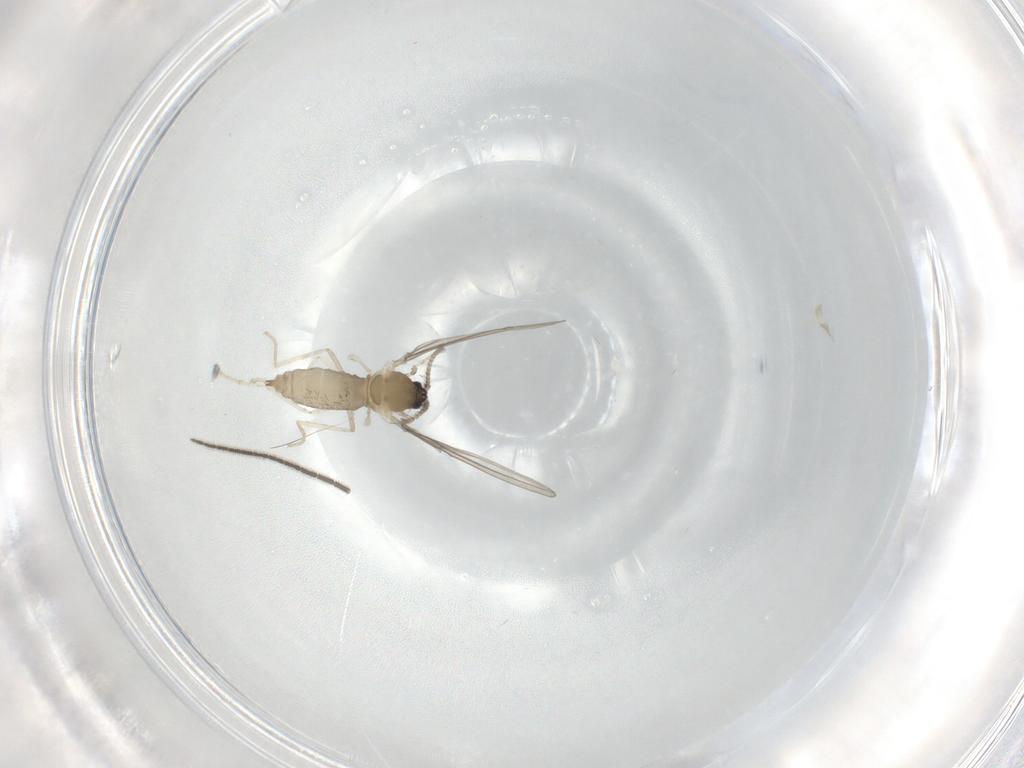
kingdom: Animalia
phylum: Arthropoda
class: Insecta
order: Diptera
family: Cecidomyiidae
